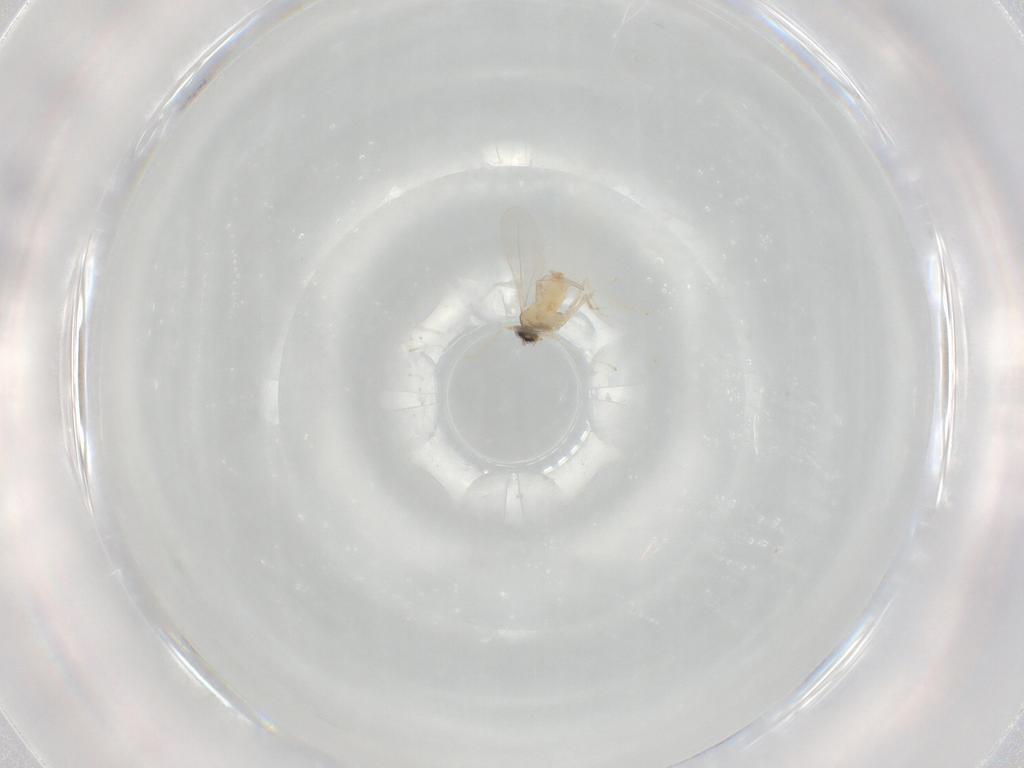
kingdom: Animalia
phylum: Arthropoda
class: Insecta
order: Diptera
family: Cecidomyiidae
